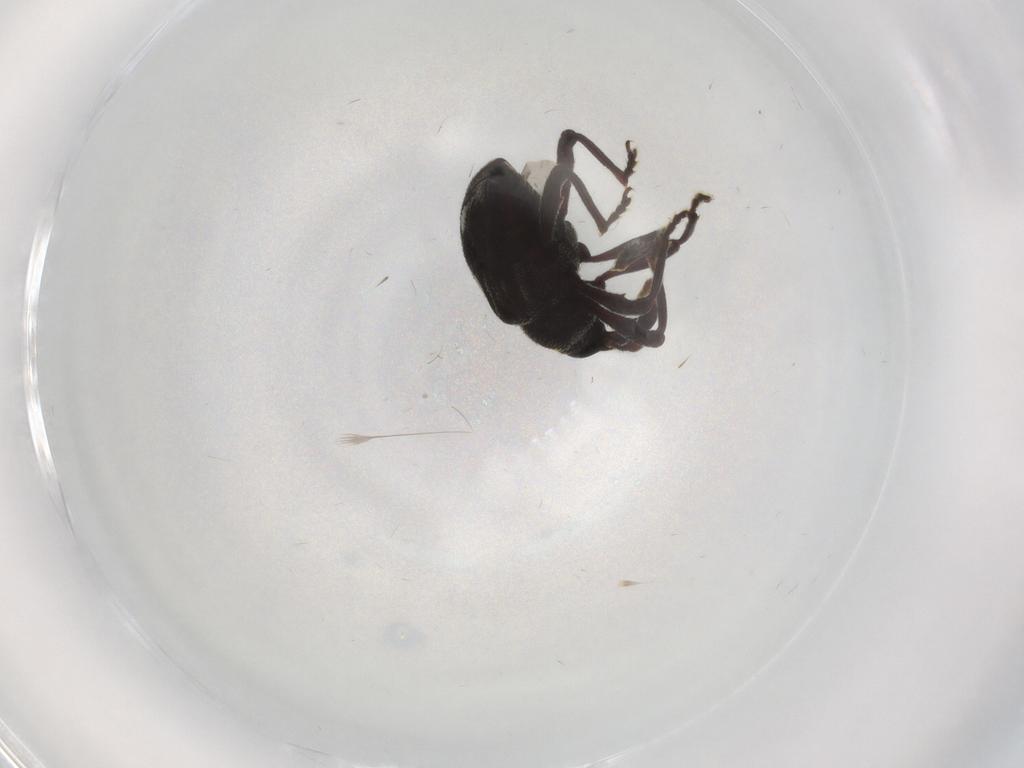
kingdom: Animalia
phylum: Arthropoda
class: Insecta
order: Coleoptera
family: Curculionidae
